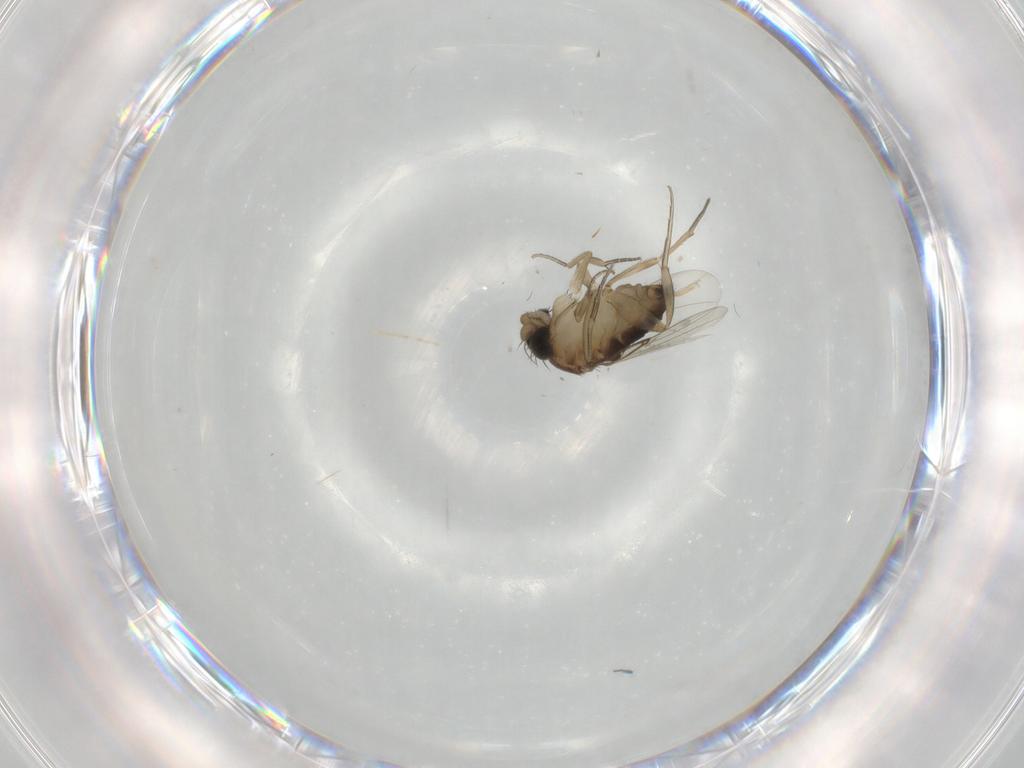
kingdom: Animalia
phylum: Arthropoda
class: Insecta
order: Diptera
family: Phoridae
